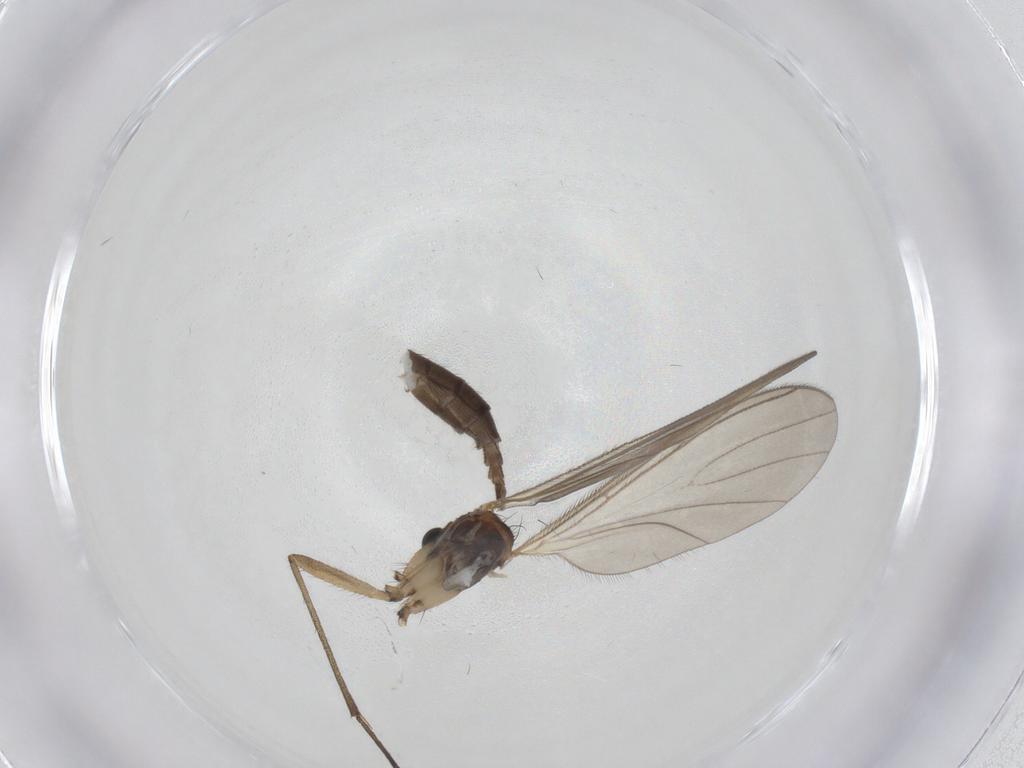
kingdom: Animalia
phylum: Arthropoda
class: Insecta
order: Diptera
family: Sciaridae
